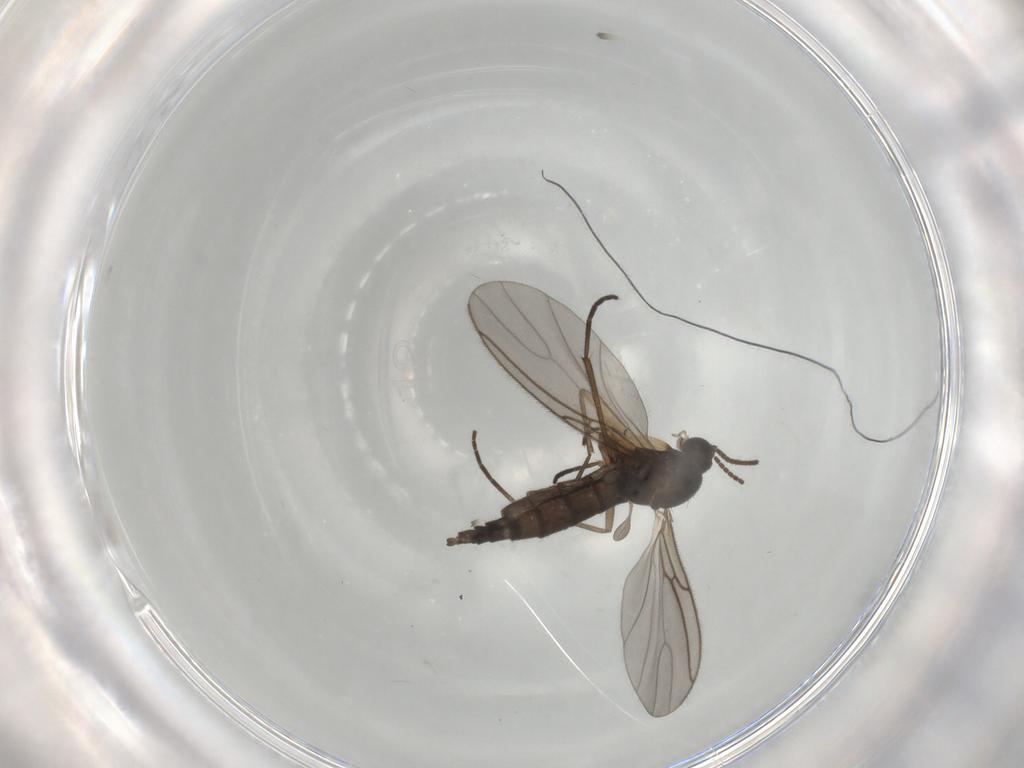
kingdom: Animalia
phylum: Arthropoda
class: Insecta
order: Diptera
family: Sciaridae
